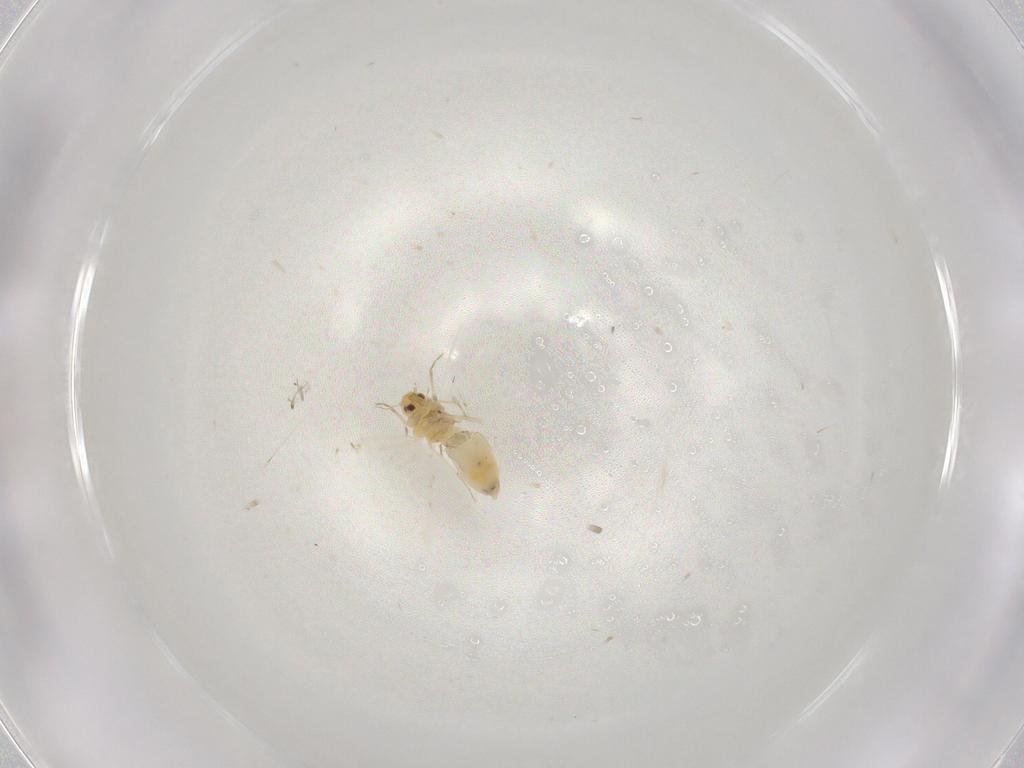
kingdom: Animalia
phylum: Arthropoda
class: Insecta
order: Hemiptera
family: Aleyrodidae
